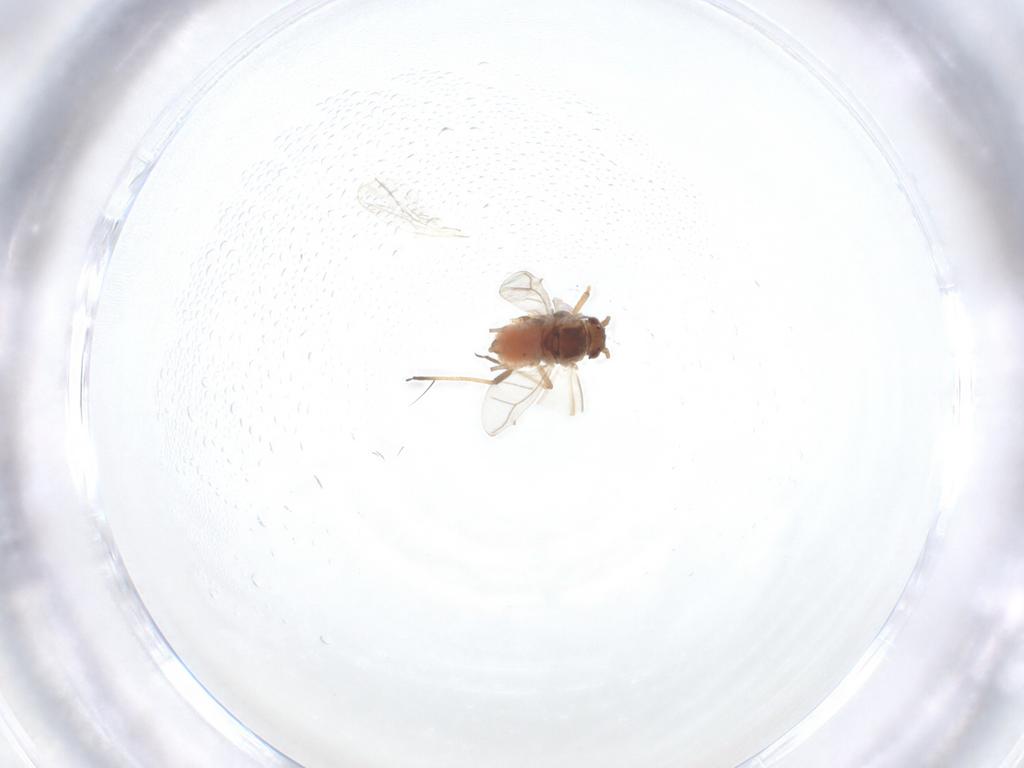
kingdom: Animalia
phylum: Arthropoda
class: Insecta
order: Hemiptera
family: Aphididae
